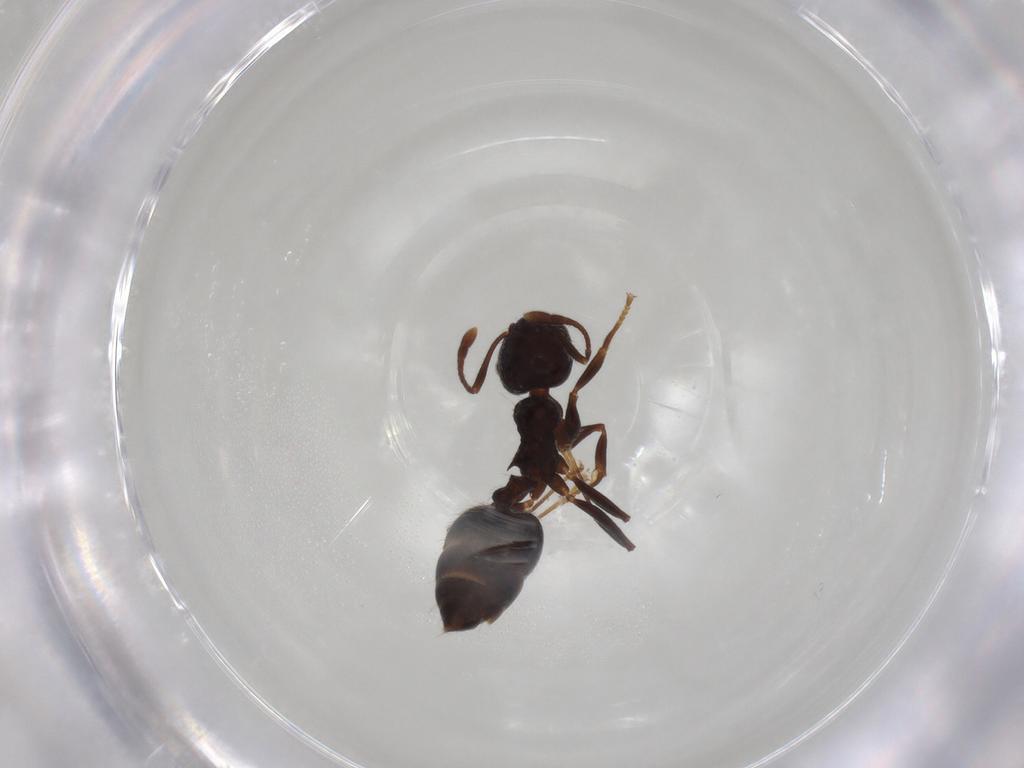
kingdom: Animalia
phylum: Arthropoda
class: Insecta
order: Hymenoptera
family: Formicidae
